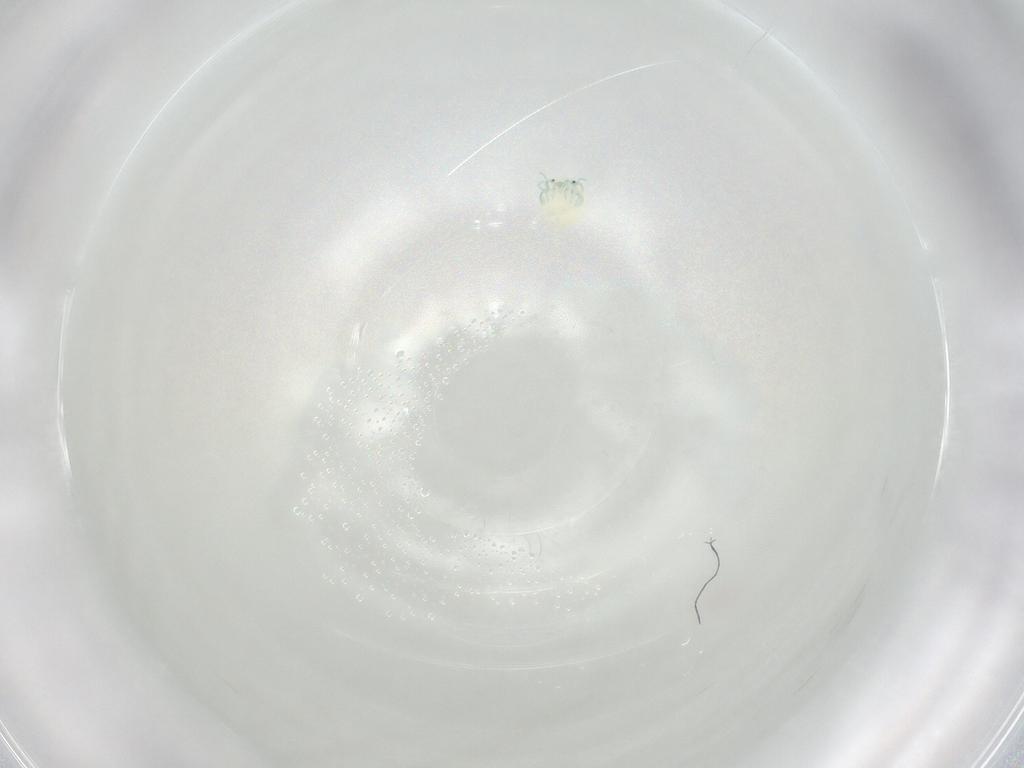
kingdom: Animalia
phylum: Arthropoda
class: Arachnida
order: Trombidiformes
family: Arrenuridae
